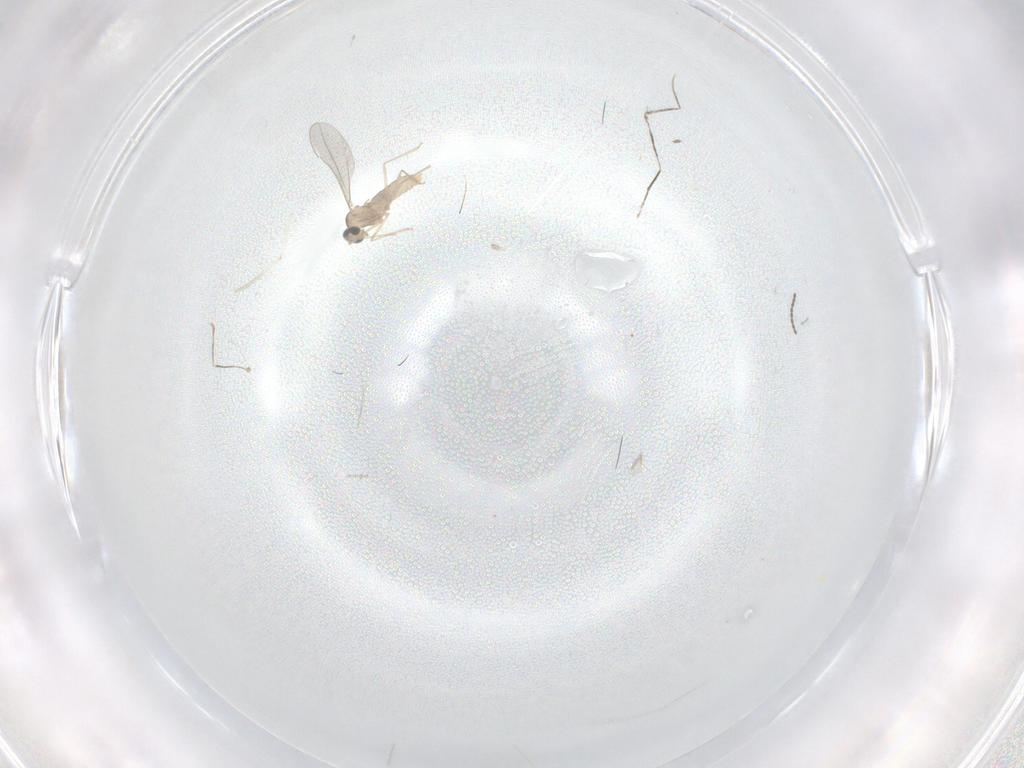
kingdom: Animalia
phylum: Arthropoda
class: Insecta
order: Diptera
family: Cecidomyiidae
